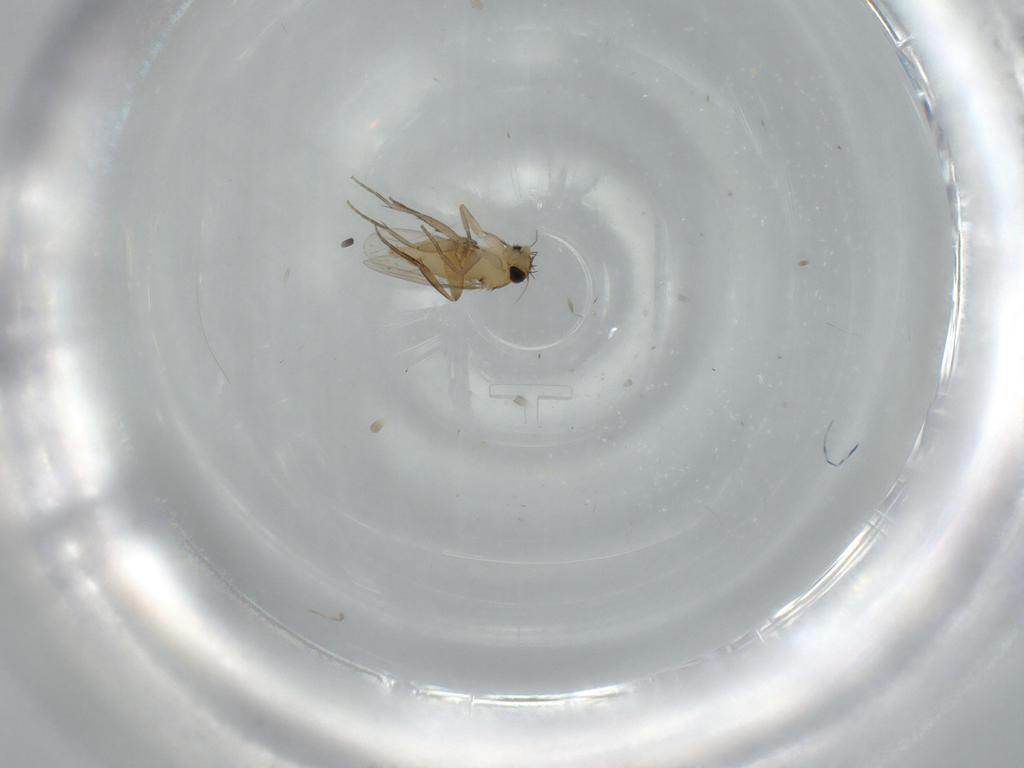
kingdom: Animalia
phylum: Arthropoda
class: Insecta
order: Diptera
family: Phoridae
